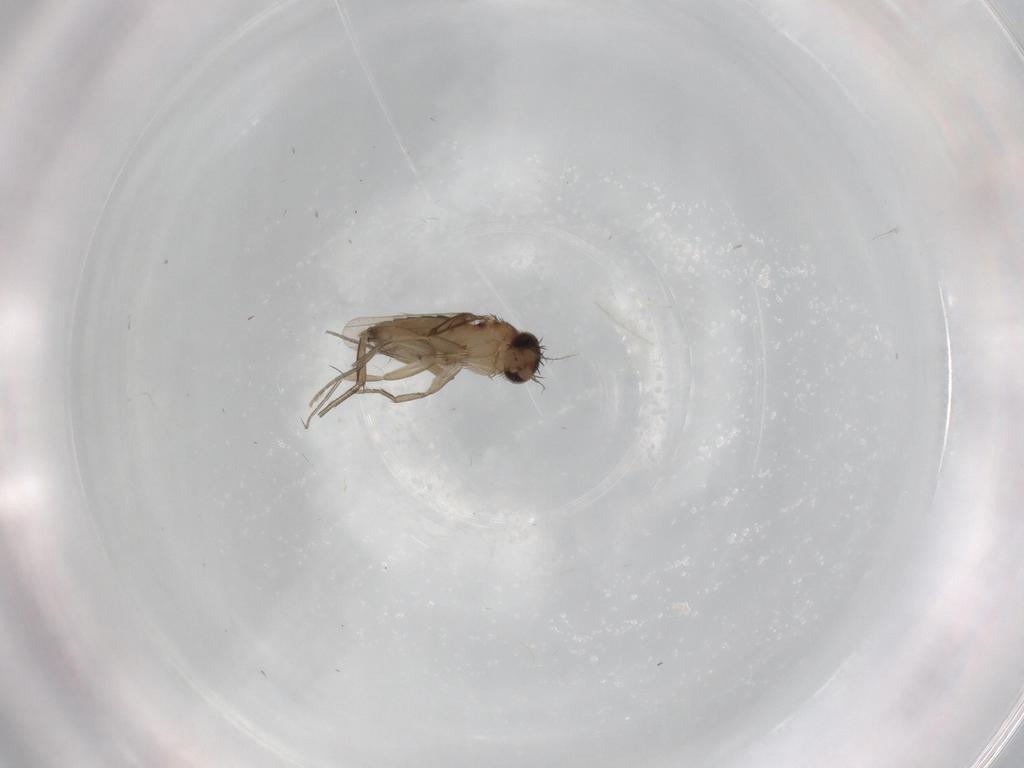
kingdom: Animalia
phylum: Arthropoda
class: Insecta
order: Diptera
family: Phoridae
